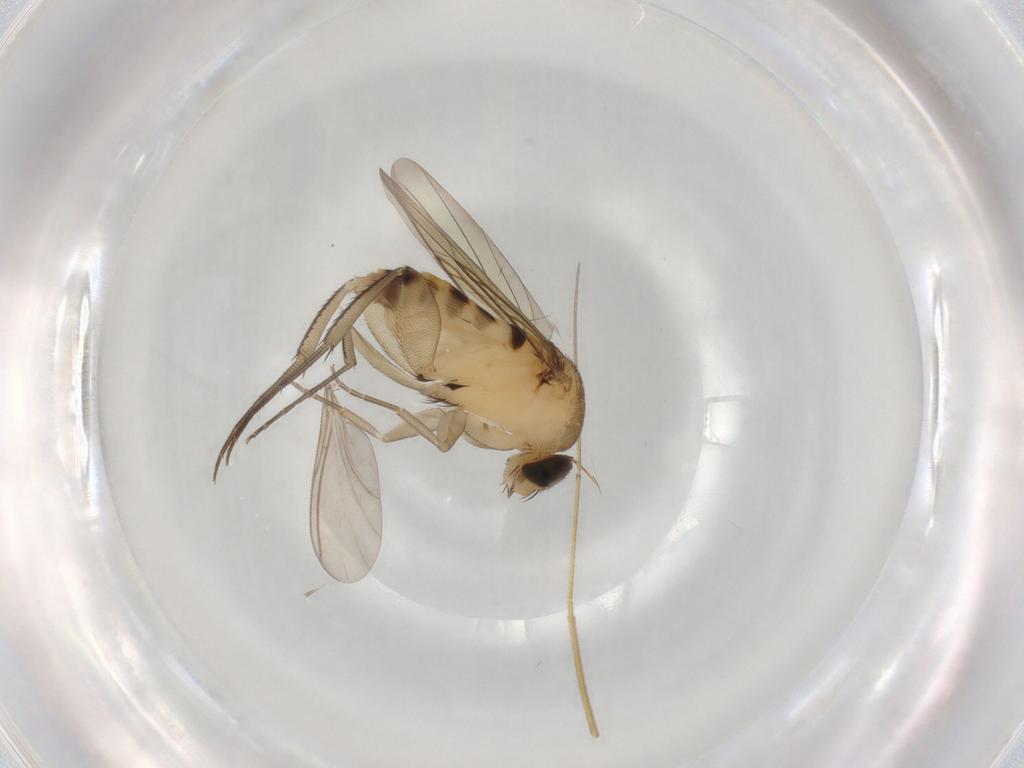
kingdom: Animalia
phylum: Arthropoda
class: Insecta
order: Diptera
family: Phoridae
